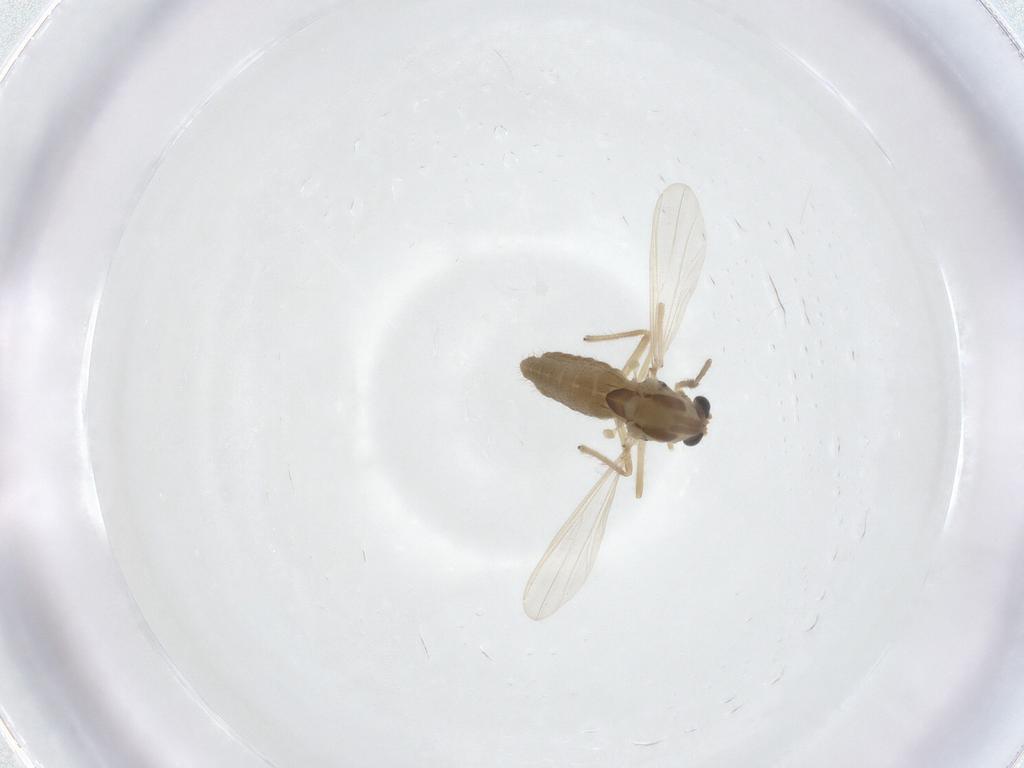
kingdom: Animalia
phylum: Arthropoda
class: Insecta
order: Diptera
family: Chironomidae
